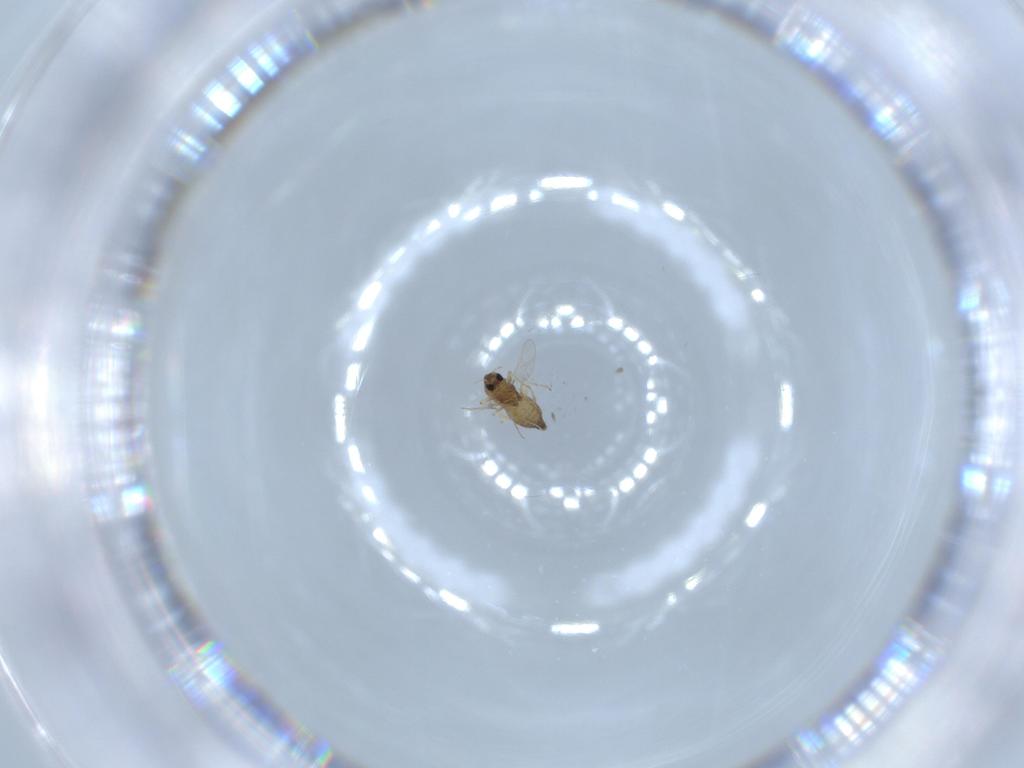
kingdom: Animalia
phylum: Arthropoda
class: Insecta
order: Diptera
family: Chironomidae
